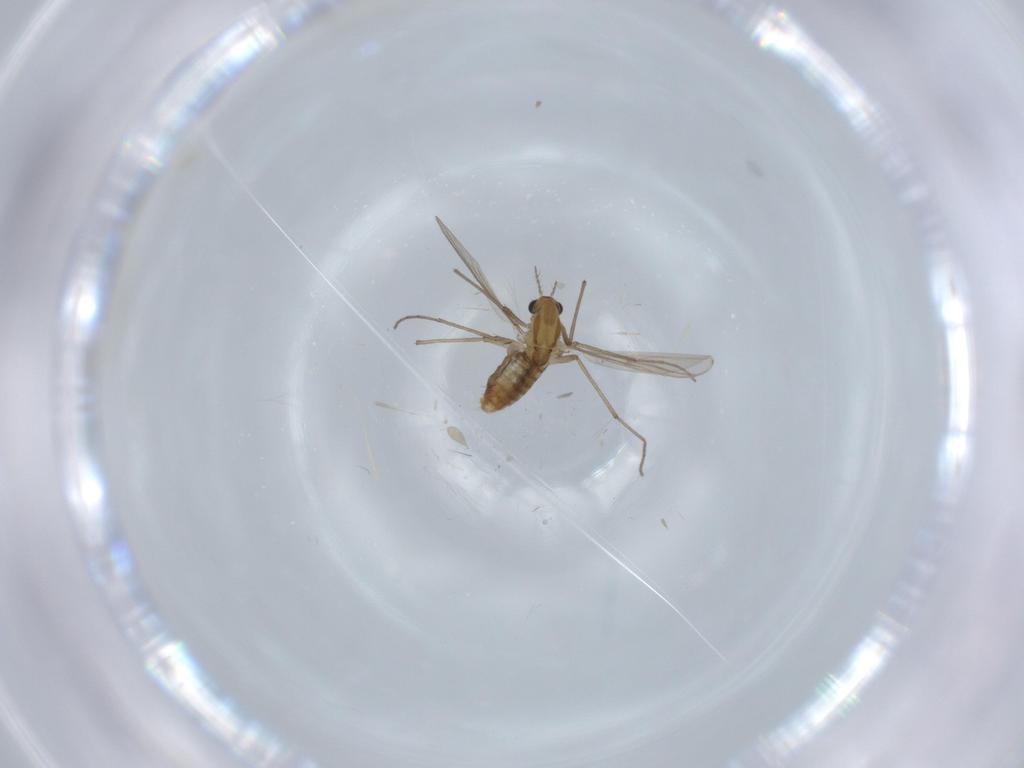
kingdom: Animalia
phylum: Arthropoda
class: Insecta
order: Diptera
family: Chironomidae
